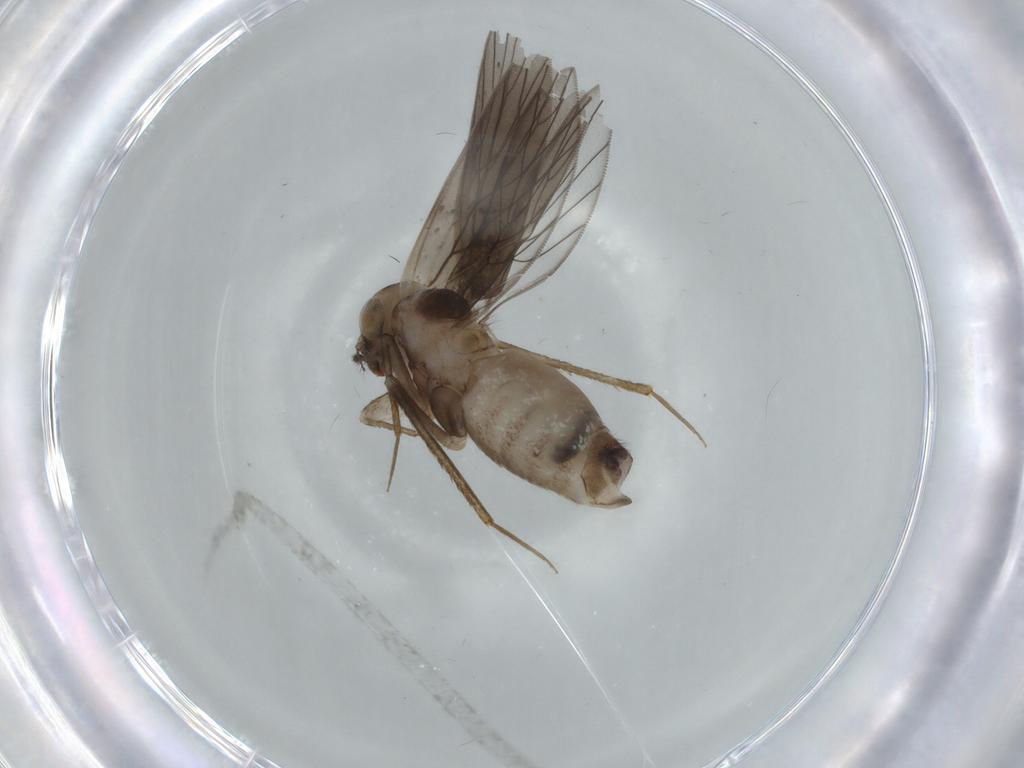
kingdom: Animalia
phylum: Arthropoda
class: Insecta
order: Psocodea
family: Lepidopsocidae
